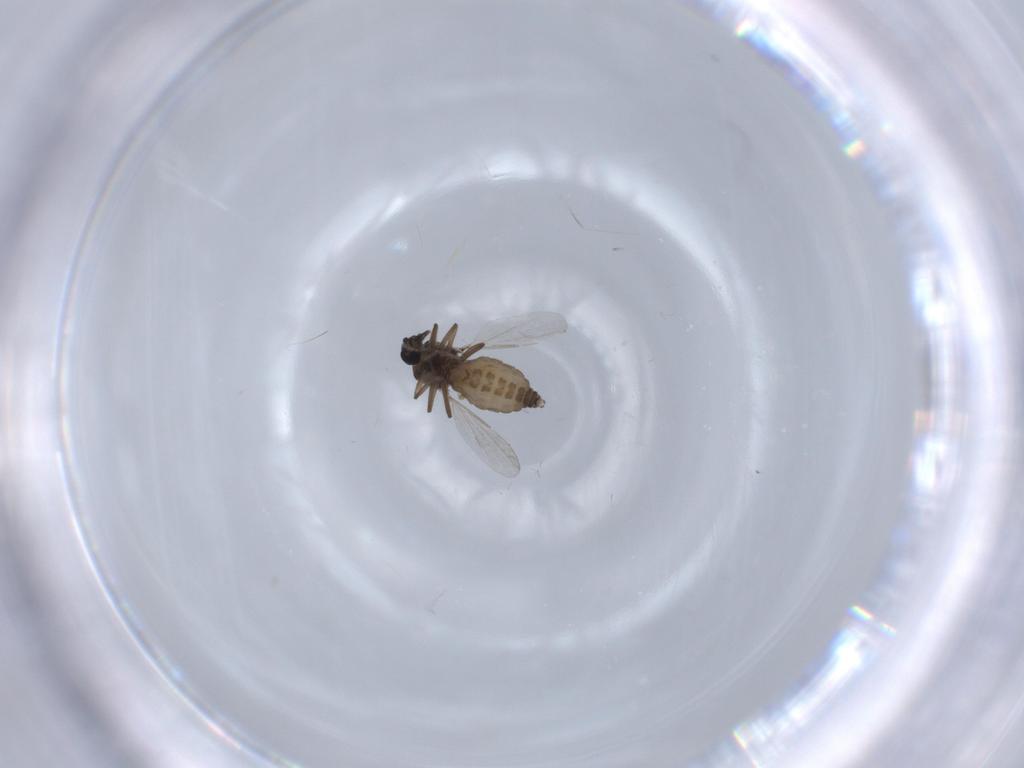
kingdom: Animalia
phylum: Arthropoda
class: Insecta
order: Diptera
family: Ceratopogonidae
